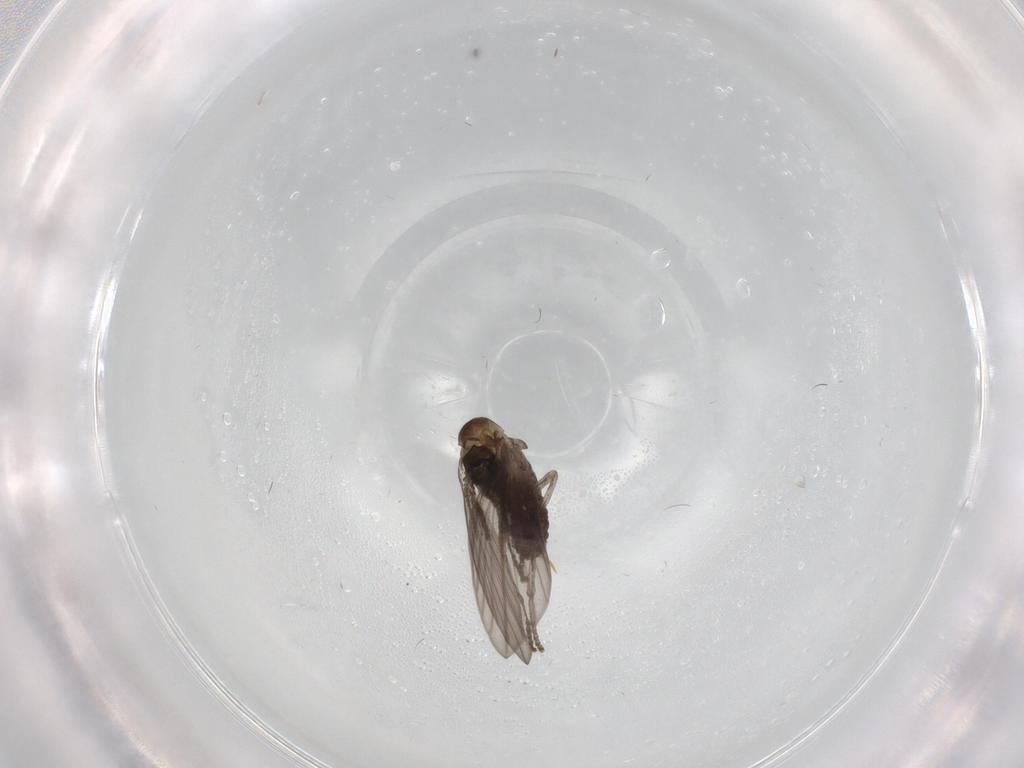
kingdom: Animalia
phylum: Arthropoda
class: Insecta
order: Diptera
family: Psychodidae
